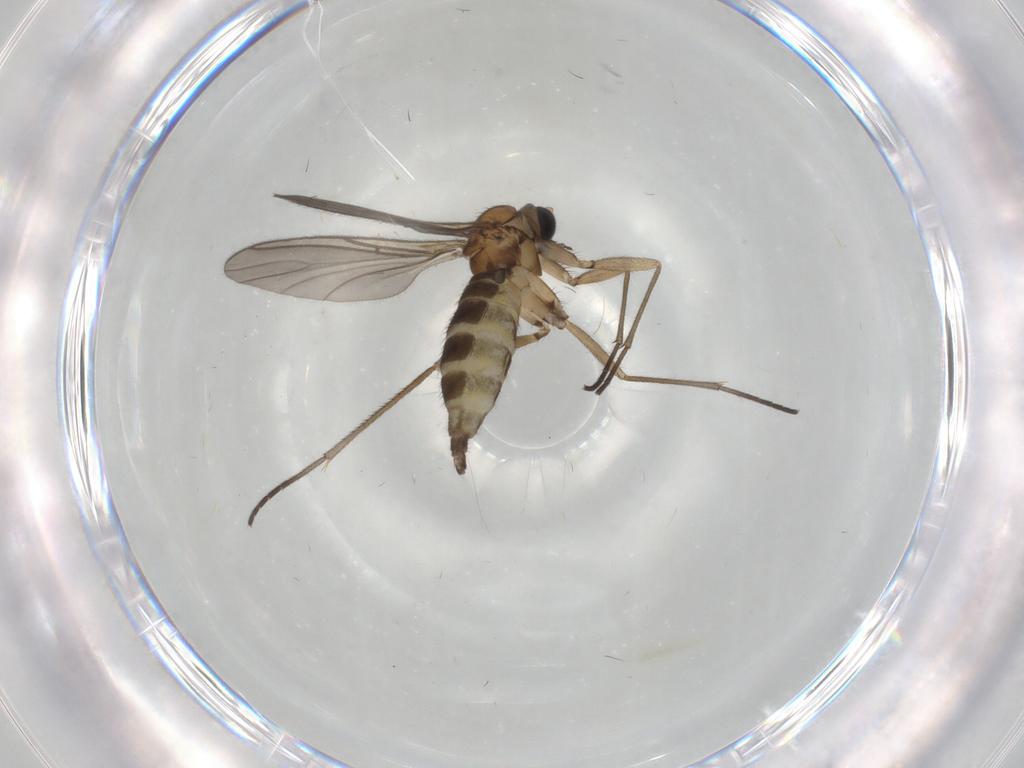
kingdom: Animalia
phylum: Arthropoda
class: Insecta
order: Diptera
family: Sciaridae
